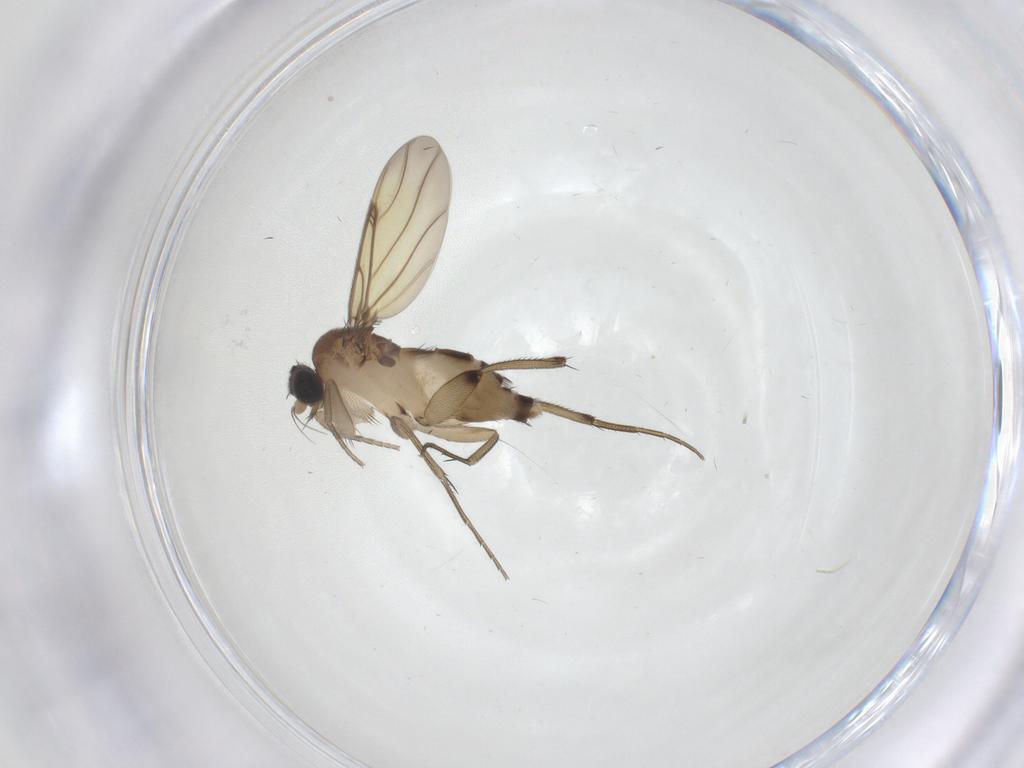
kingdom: Animalia
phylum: Arthropoda
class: Insecta
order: Diptera
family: Phoridae
